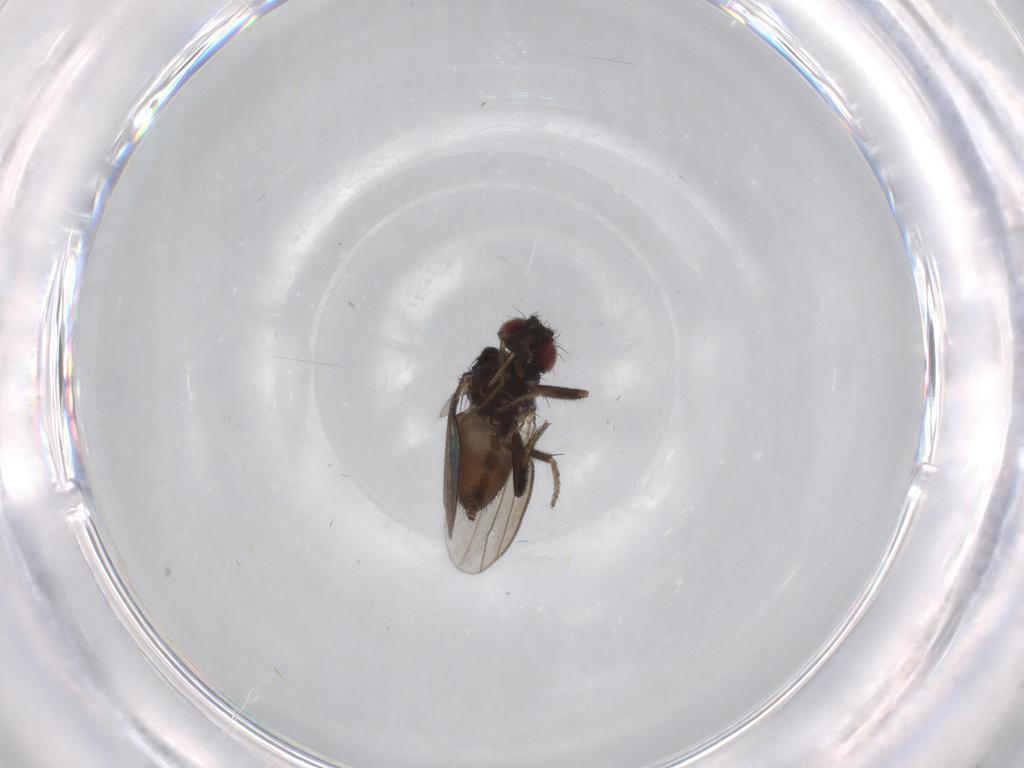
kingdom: Animalia
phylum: Arthropoda
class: Insecta
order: Diptera
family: Milichiidae
